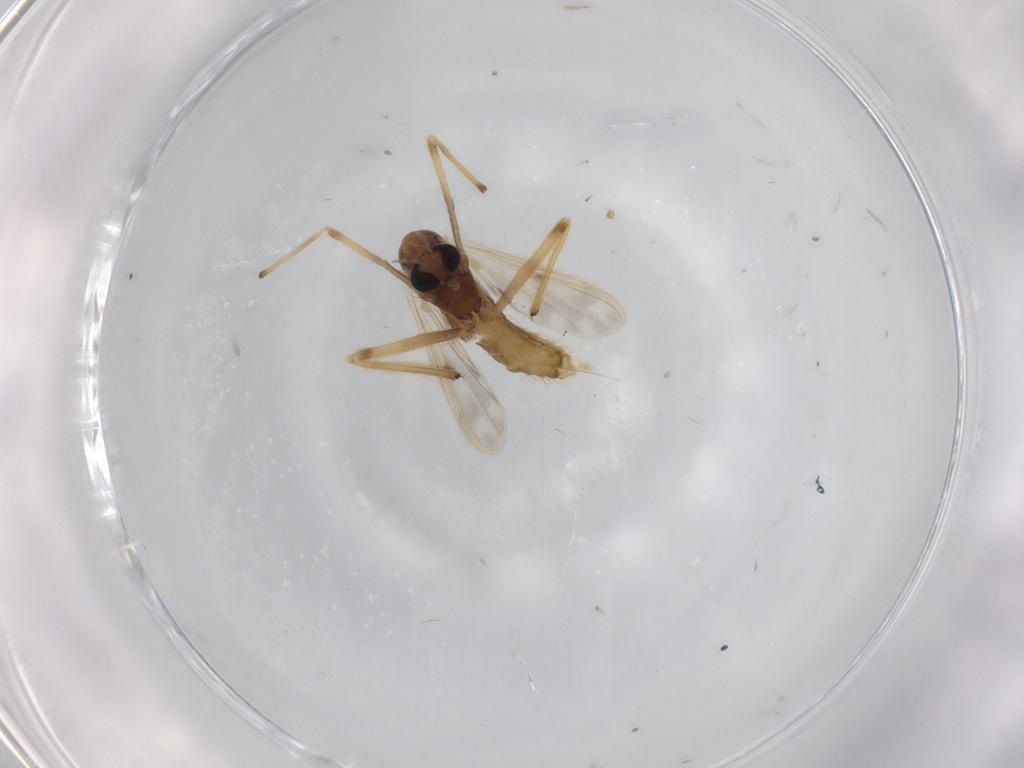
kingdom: Animalia
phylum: Arthropoda
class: Insecta
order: Diptera
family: Chironomidae
